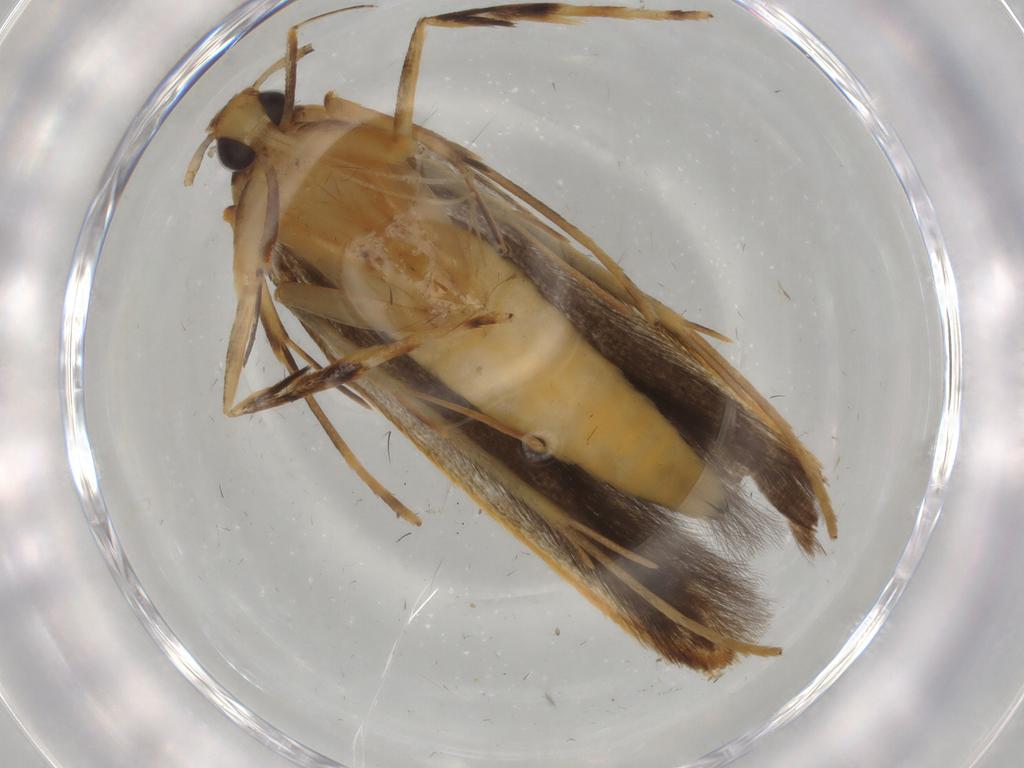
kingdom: Animalia
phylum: Arthropoda
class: Insecta
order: Lepidoptera
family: Pterolonchidae
